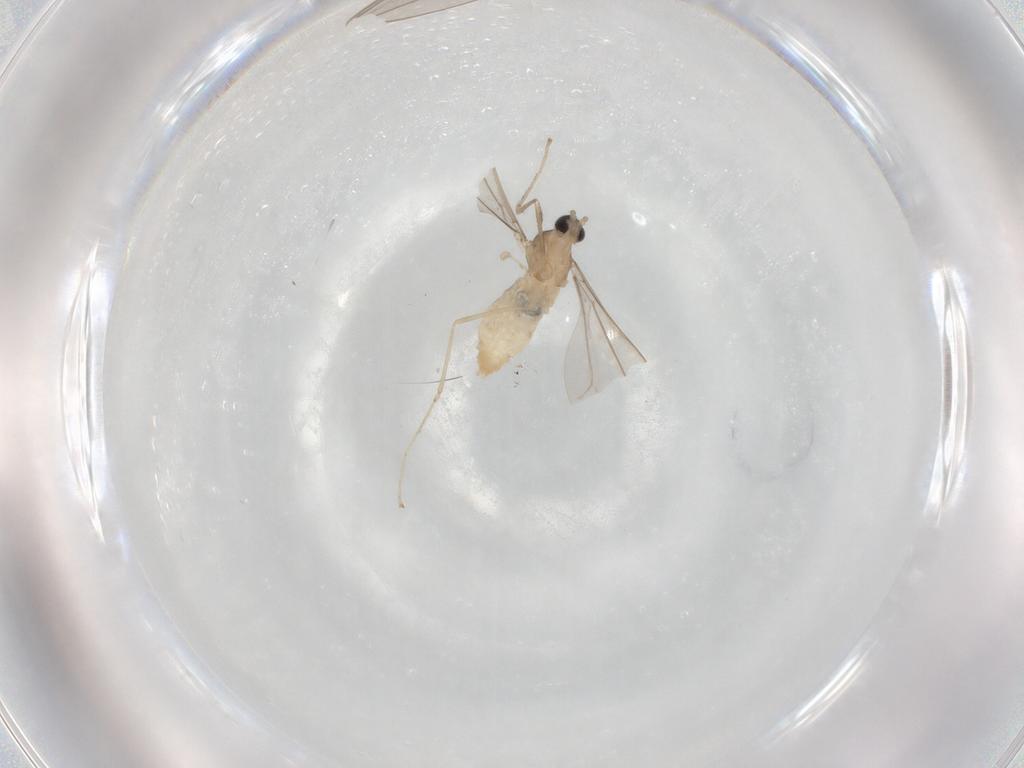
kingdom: Animalia
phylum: Arthropoda
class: Insecta
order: Diptera
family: Cecidomyiidae
